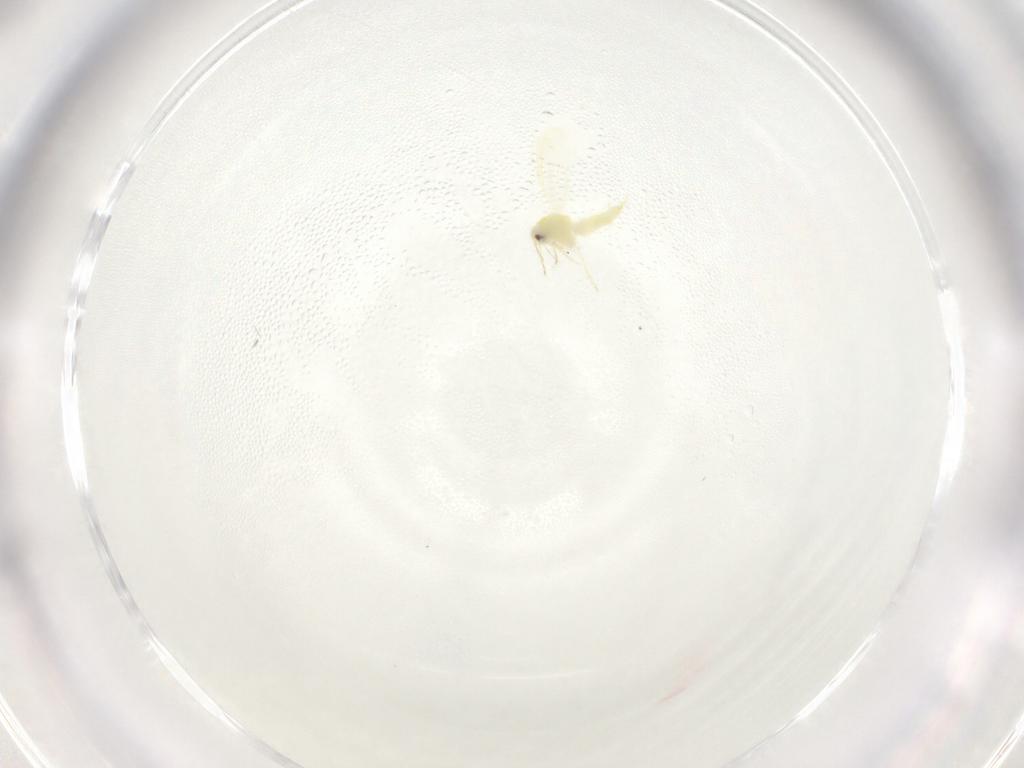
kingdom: Animalia
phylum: Arthropoda
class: Insecta
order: Hemiptera
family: Aleyrodidae
